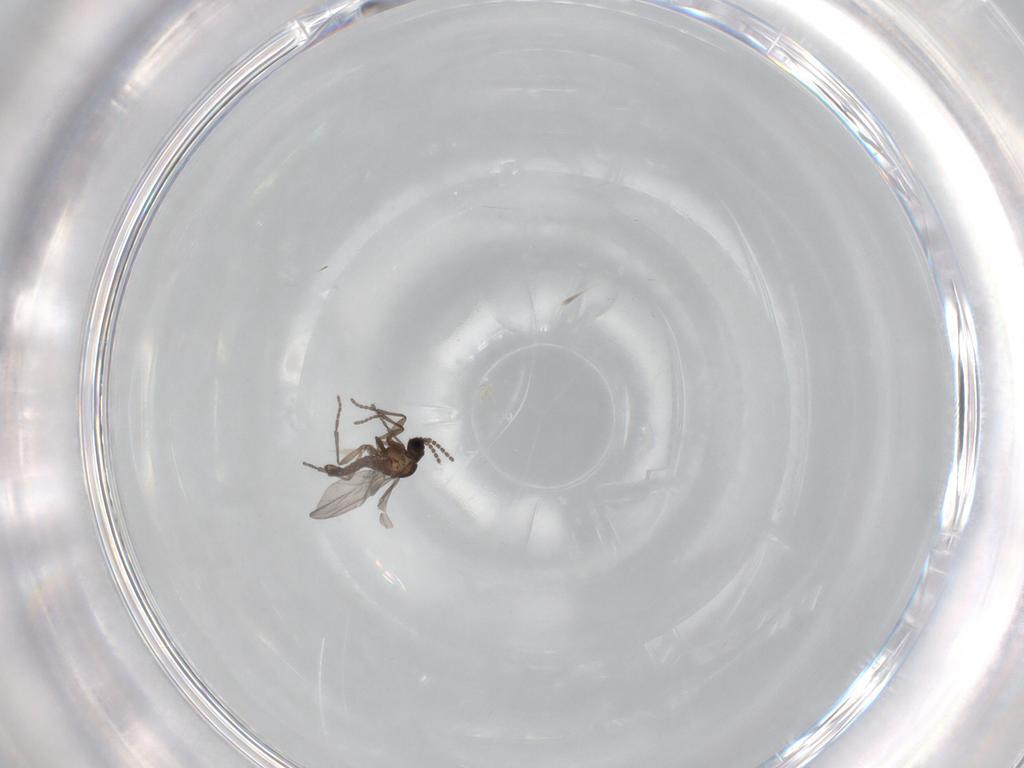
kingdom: Animalia
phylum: Arthropoda
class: Insecta
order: Diptera
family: Sciaridae
